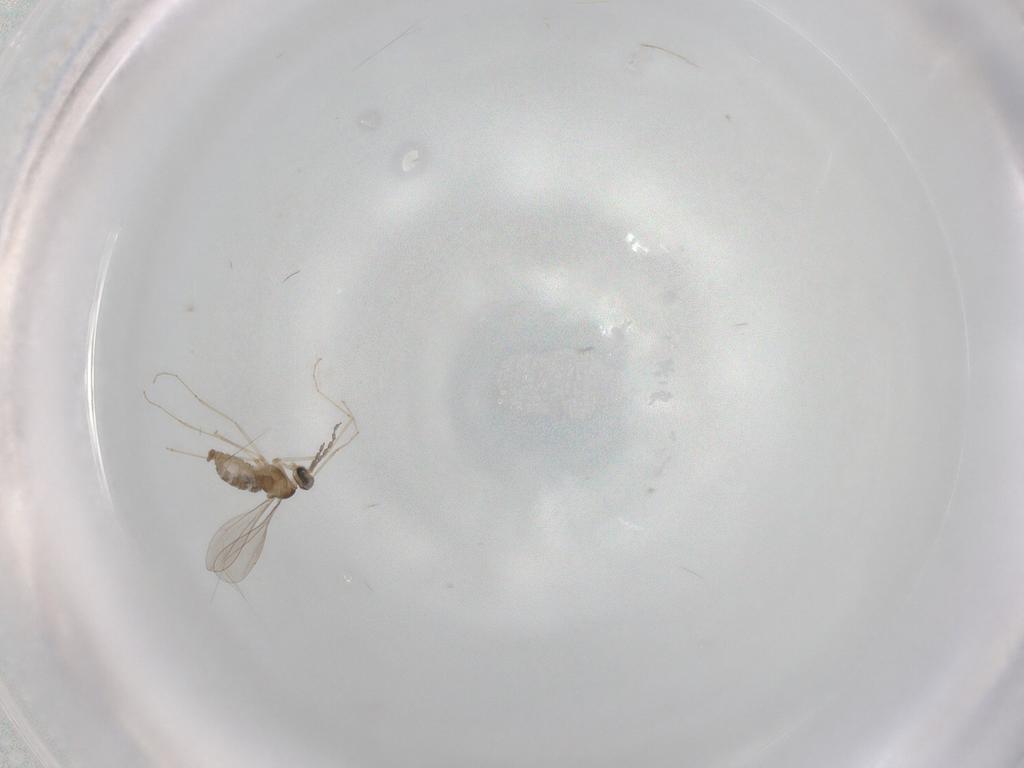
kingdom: Animalia
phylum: Arthropoda
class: Insecta
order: Diptera
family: Sarcophagidae
